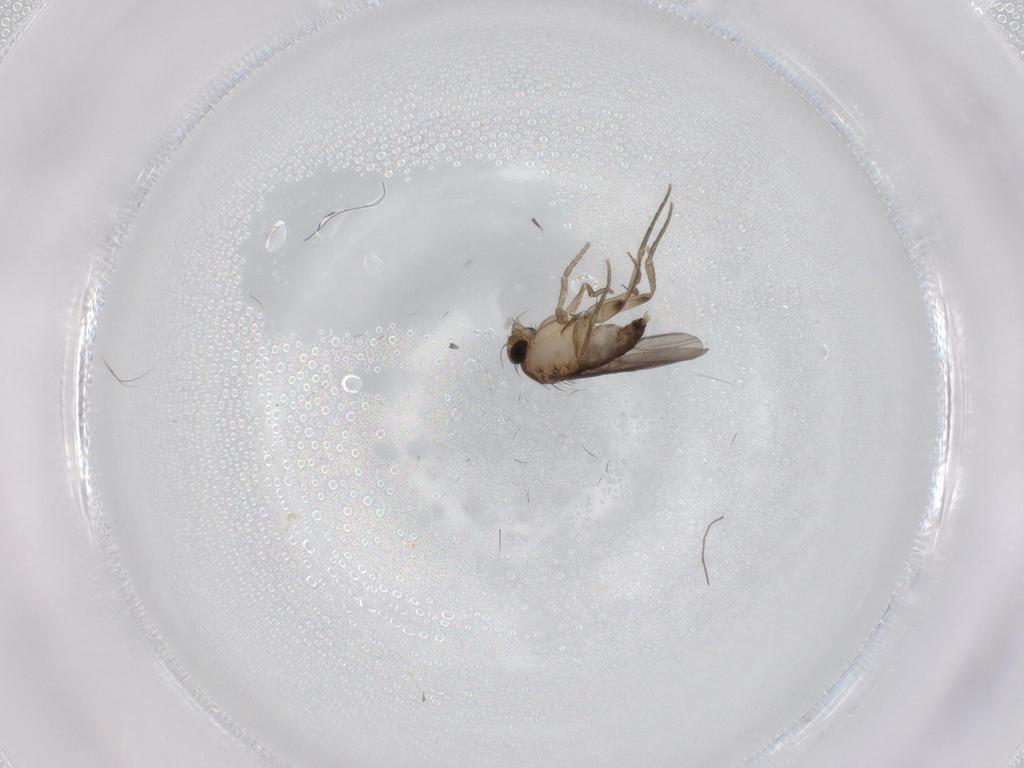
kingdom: Animalia
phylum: Arthropoda
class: Insecta
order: Diptera
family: Phoridae
